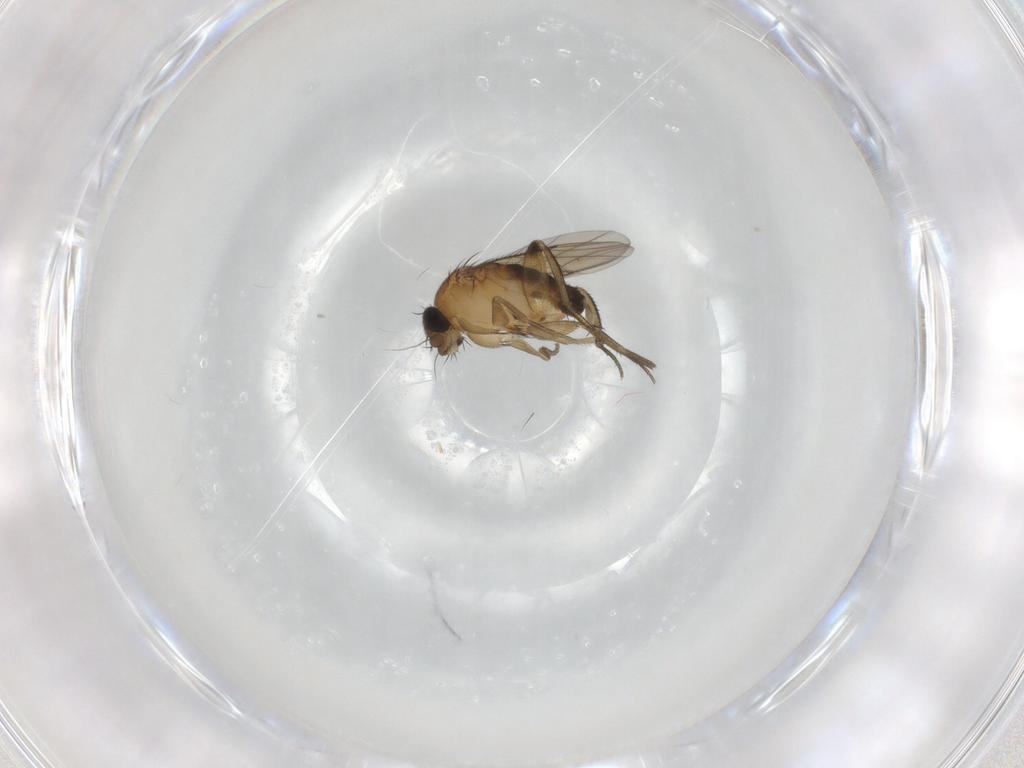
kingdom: Animalia
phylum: Arthropoda
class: Insecta
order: Diptera
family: Phoridae
